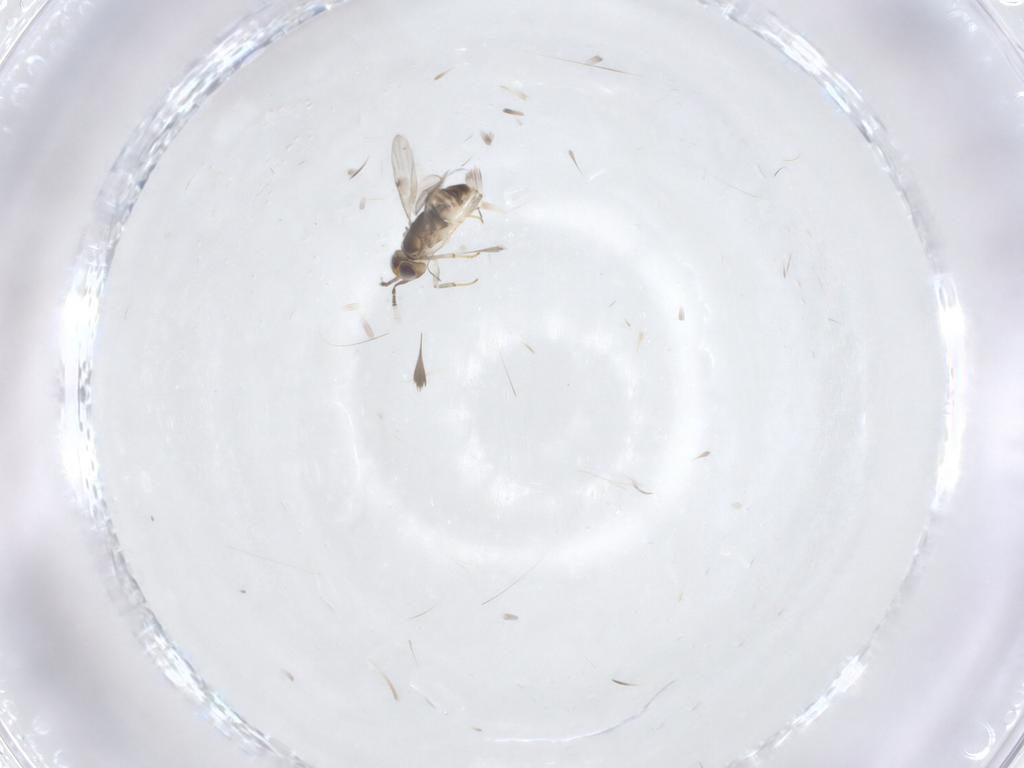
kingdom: Animalia
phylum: Arthropoda
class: Insecta
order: Hymenoptera
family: Encyrtidae
